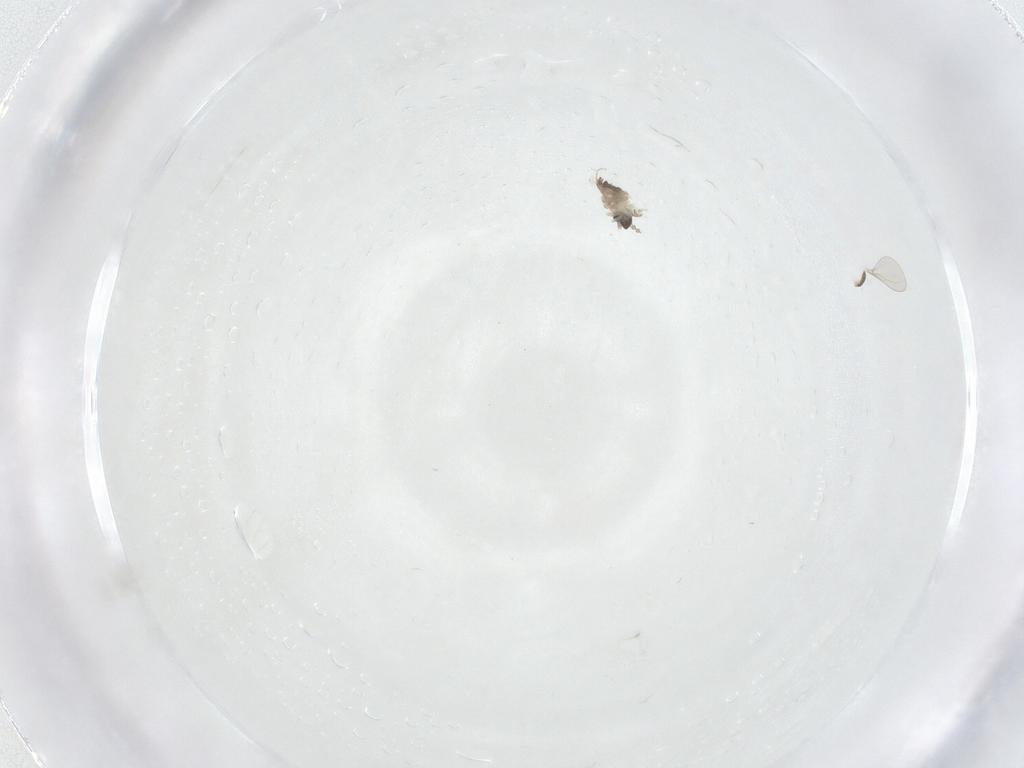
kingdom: Animalia
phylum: Arthropoda
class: Insecta
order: Diptera
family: Cecidomyiidae
